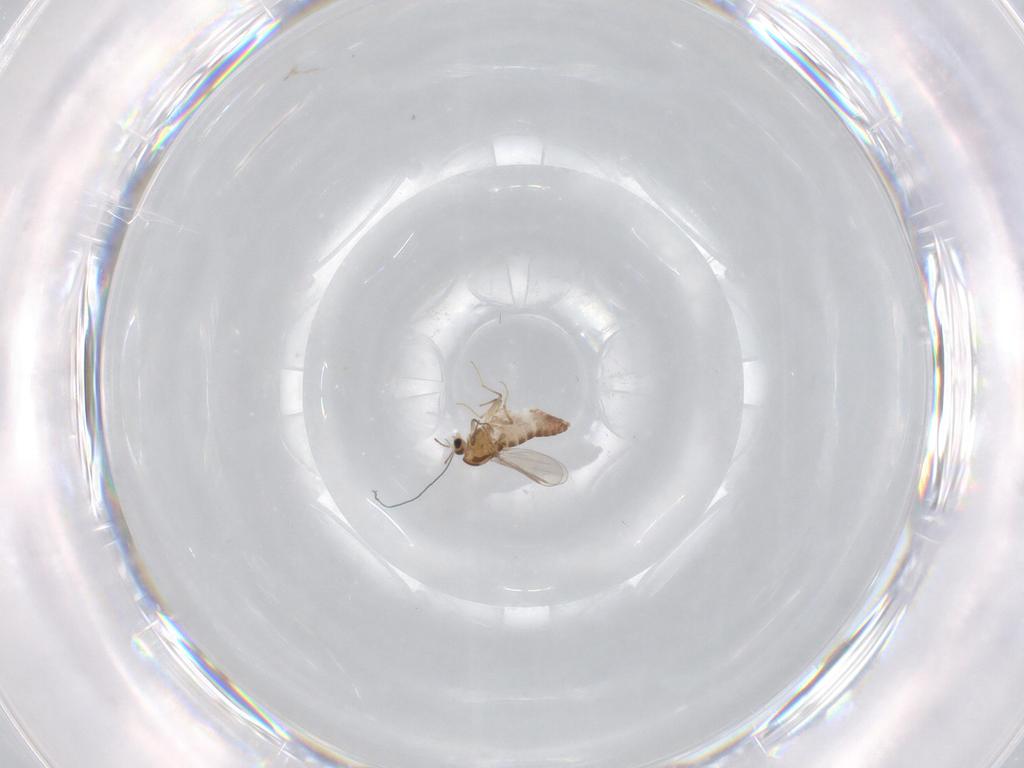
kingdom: Animalia
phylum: Arthropoda
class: Insecta
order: Diptera
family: Chironomidae
